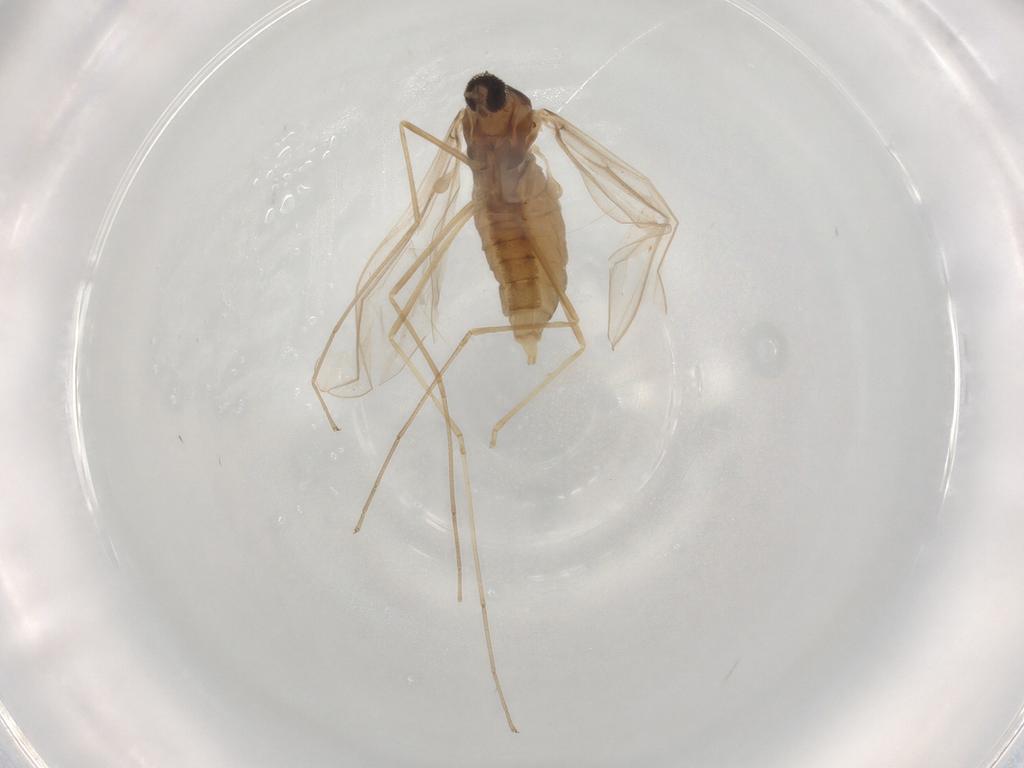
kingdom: Animalia
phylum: Arthropoda
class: Insecta
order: Diptera
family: Cecidomyiidae
